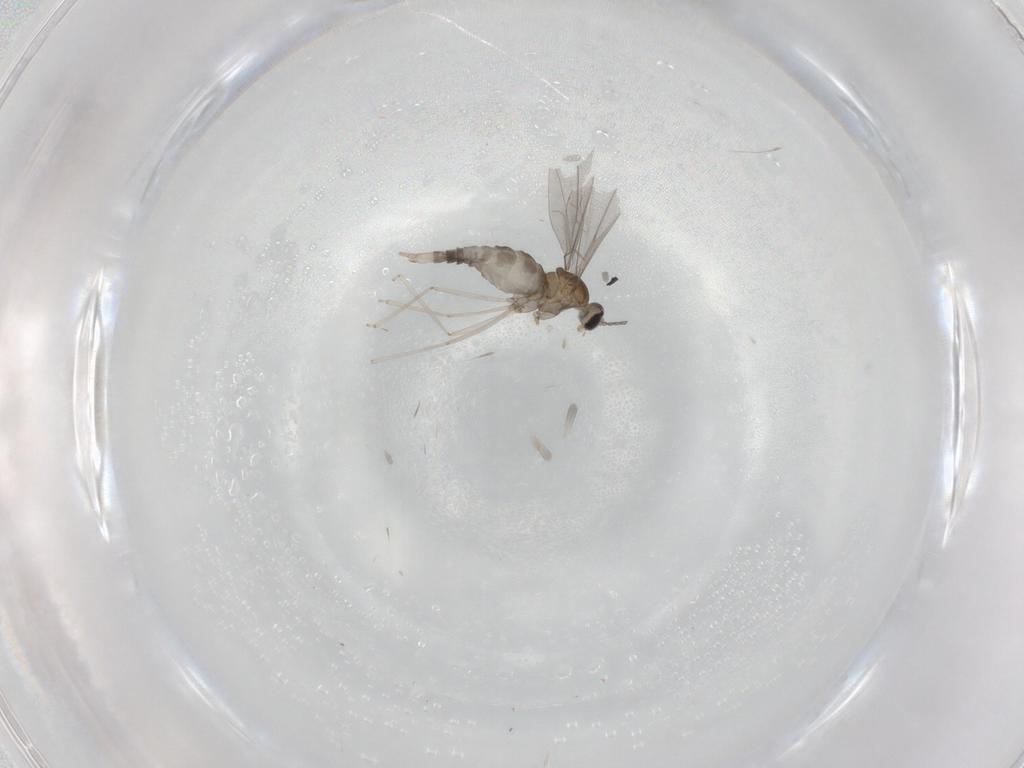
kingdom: Animalia
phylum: Arthropoda
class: Insecta
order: Diptera
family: Cecidomyiidae
